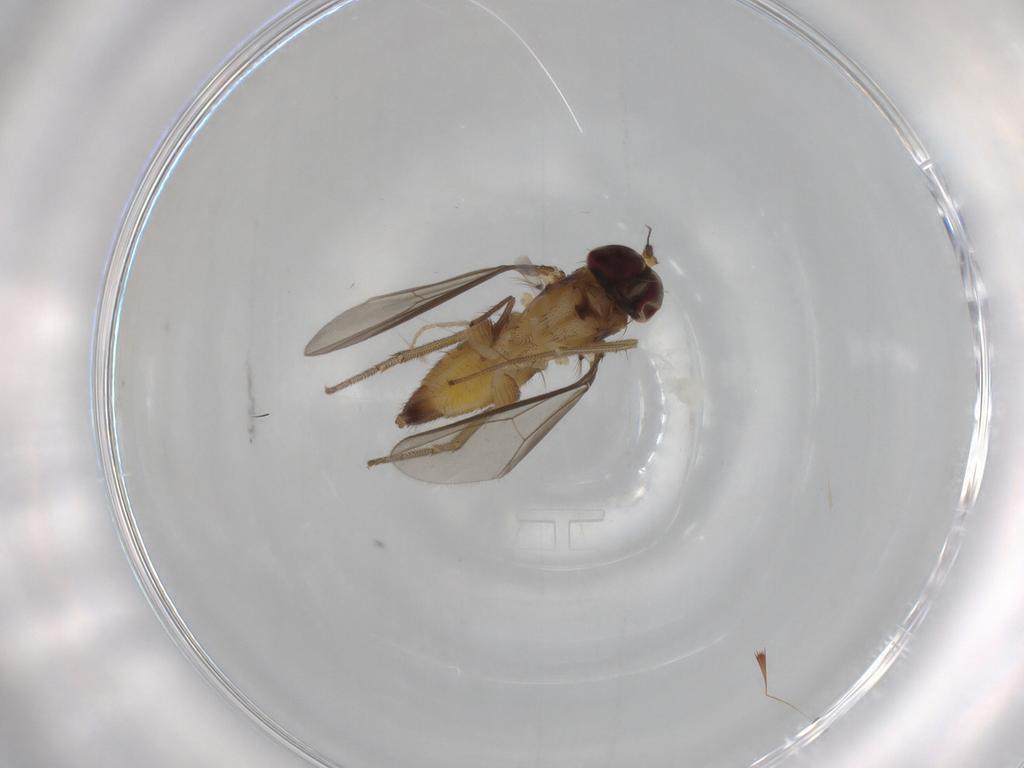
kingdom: Animalia
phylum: Arthropoda
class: Insecta
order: Diptera
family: Dolichopodidae
